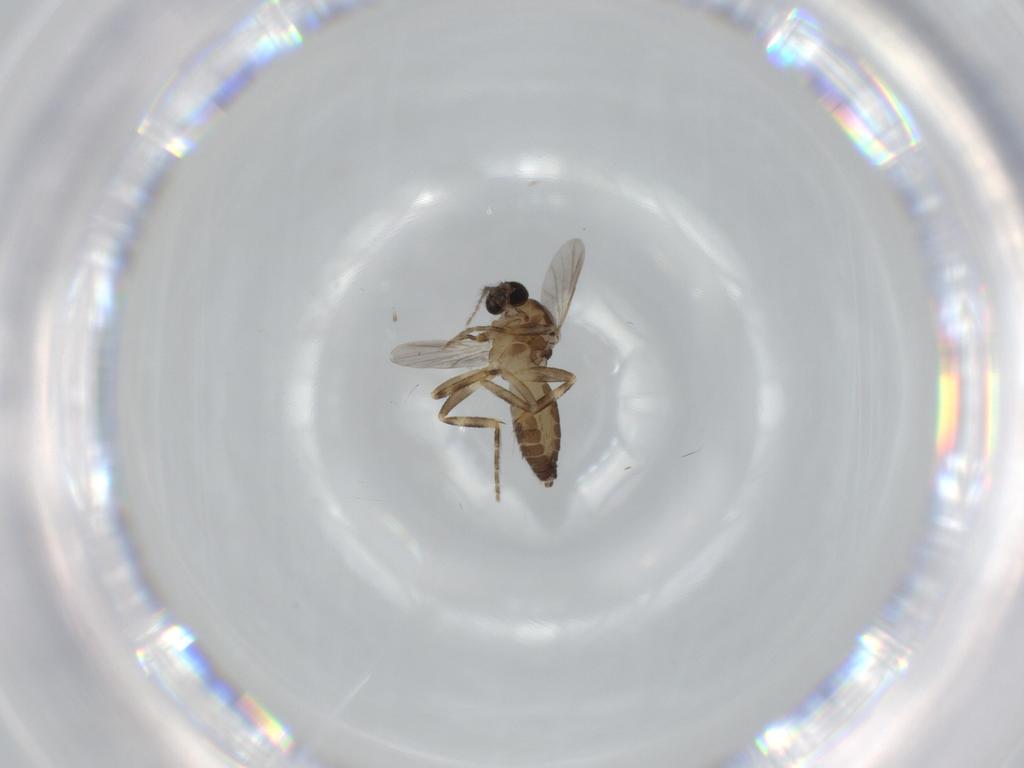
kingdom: Animalia
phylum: Arthropoda
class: Insecta
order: Diptera
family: Ceratopogonidae
